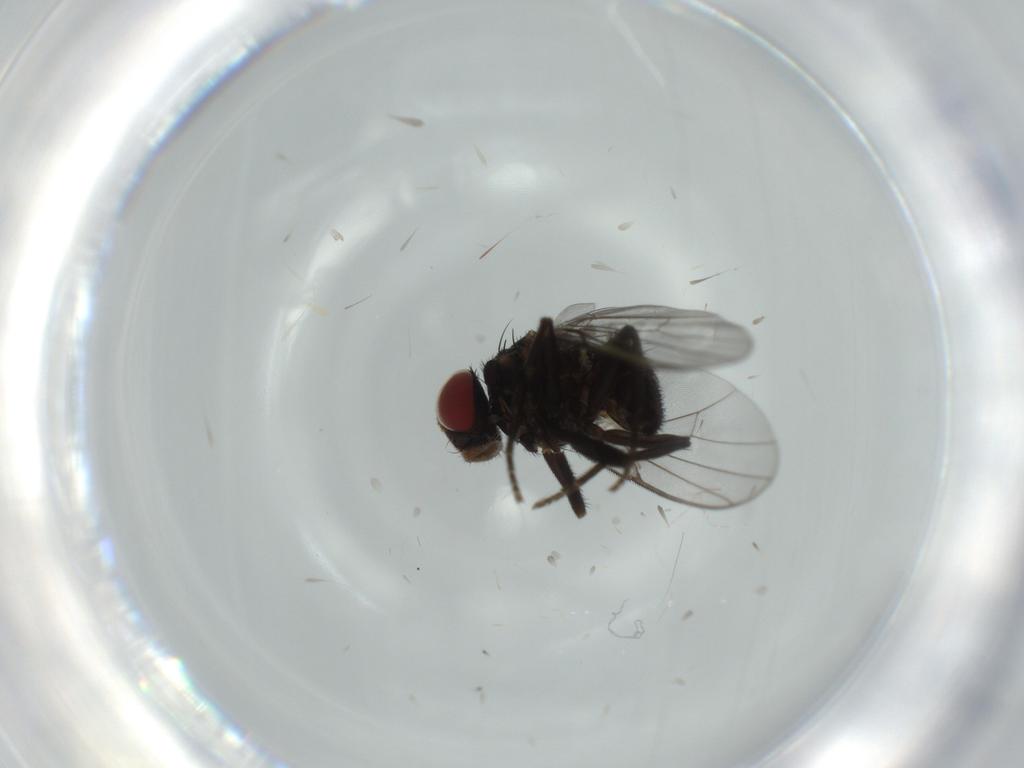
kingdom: Animalia
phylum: Arthropoda
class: Insecta
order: Diptera
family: Agromyzidae
